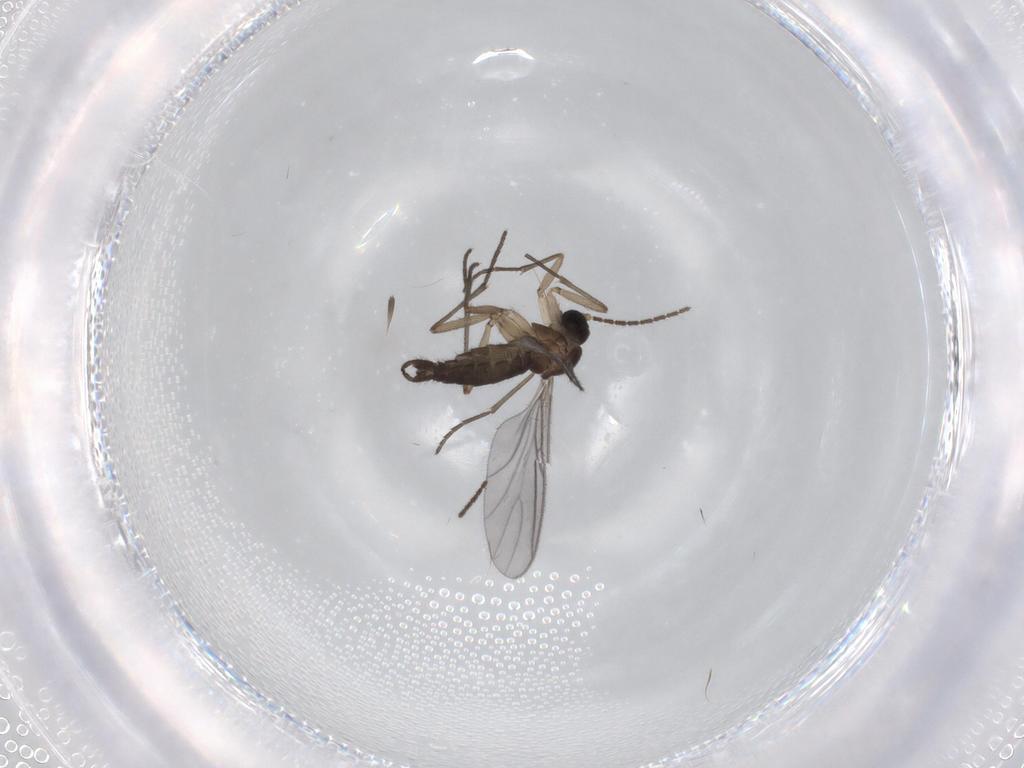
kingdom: Animalia
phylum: Arthropoda
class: Insecta
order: Diptera
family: Sciaridae
